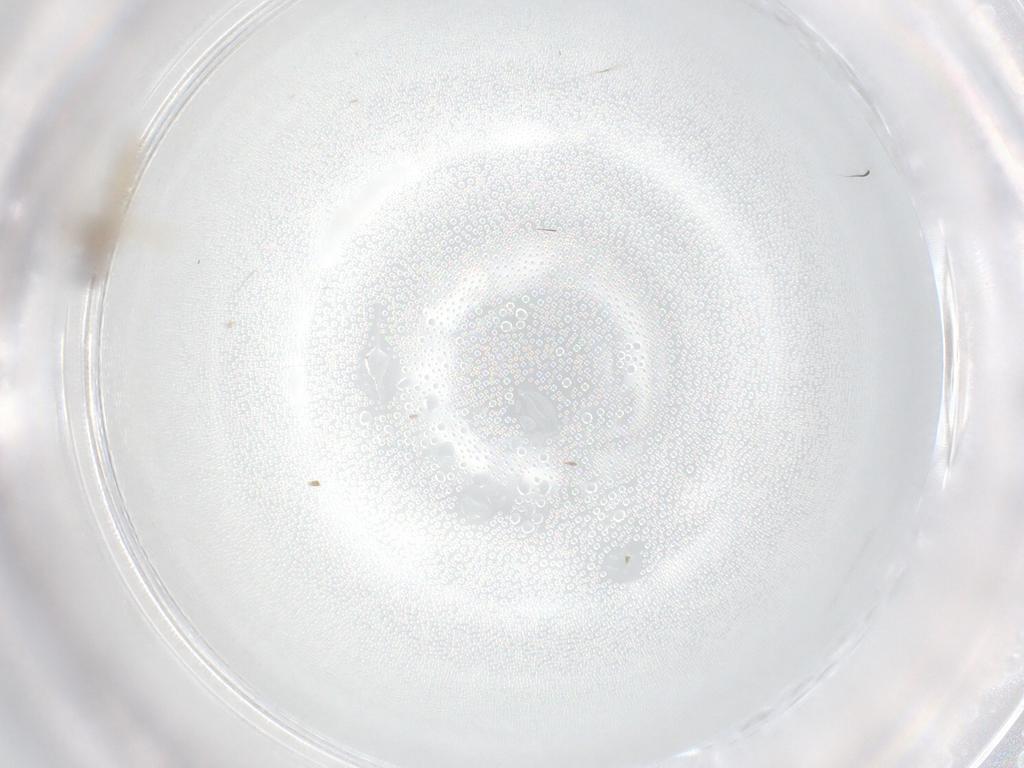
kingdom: Animalia
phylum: Arthropoda
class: Insecta
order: Diptera
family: Cecidomyiidae
